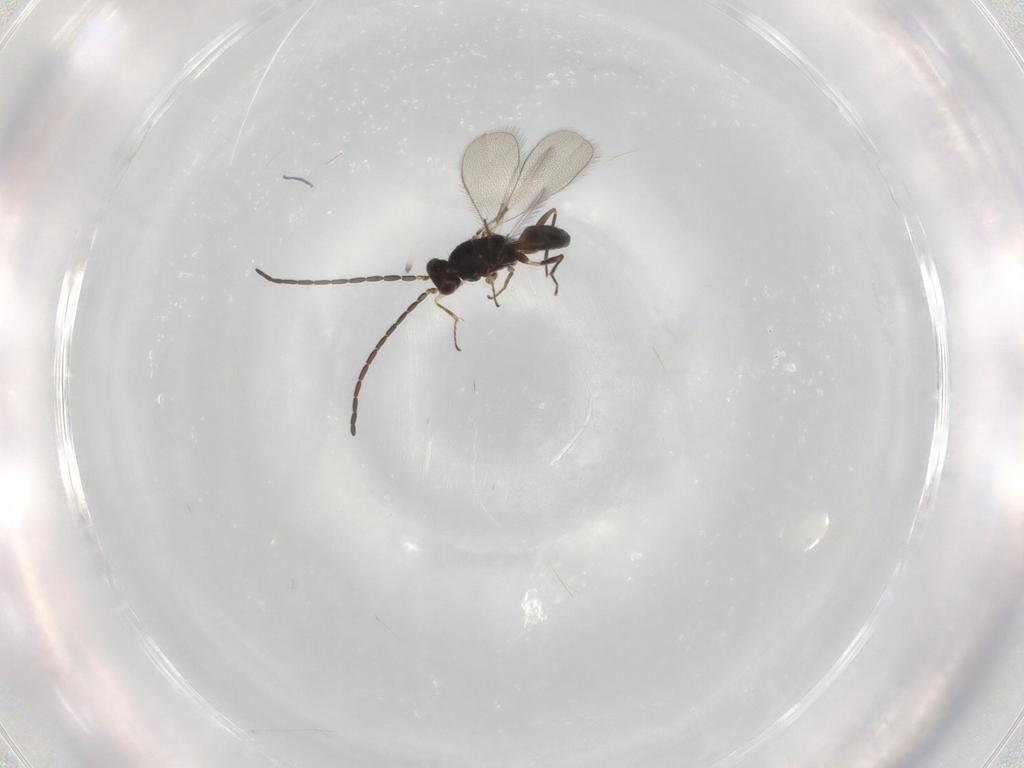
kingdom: Animalia
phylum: Arthropoda
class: Insecta
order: Hymenoptera
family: Mymaridae
